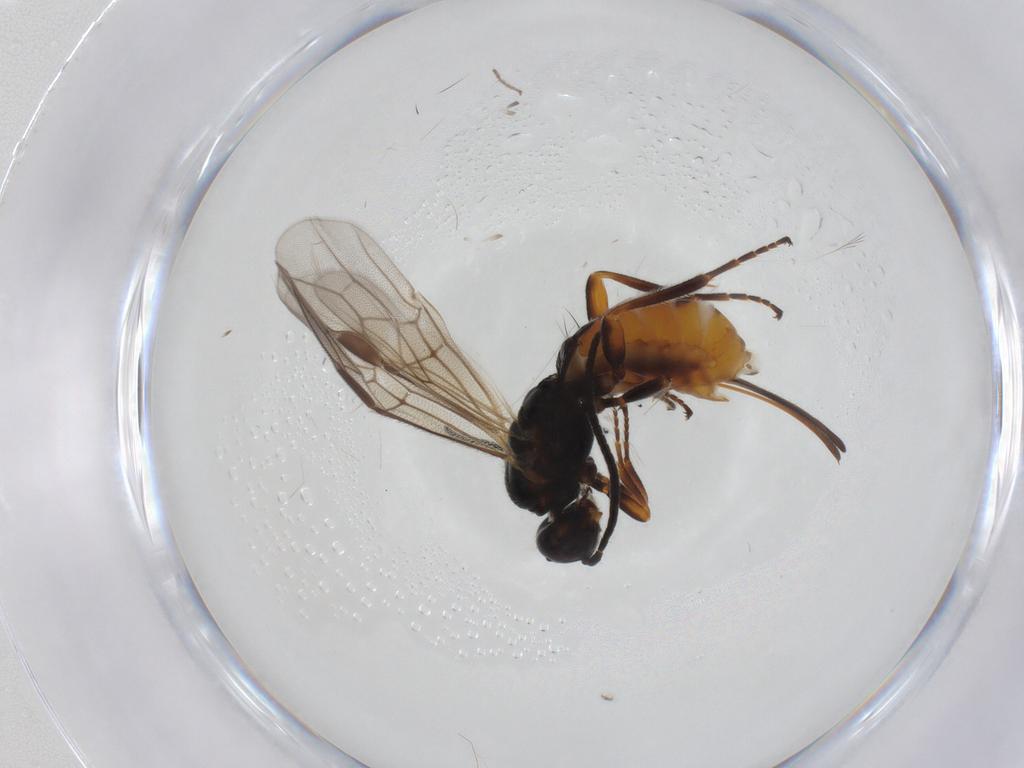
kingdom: Animalia
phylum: Arthropoda
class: Insecta
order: Hymenoptera
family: Braconidae
